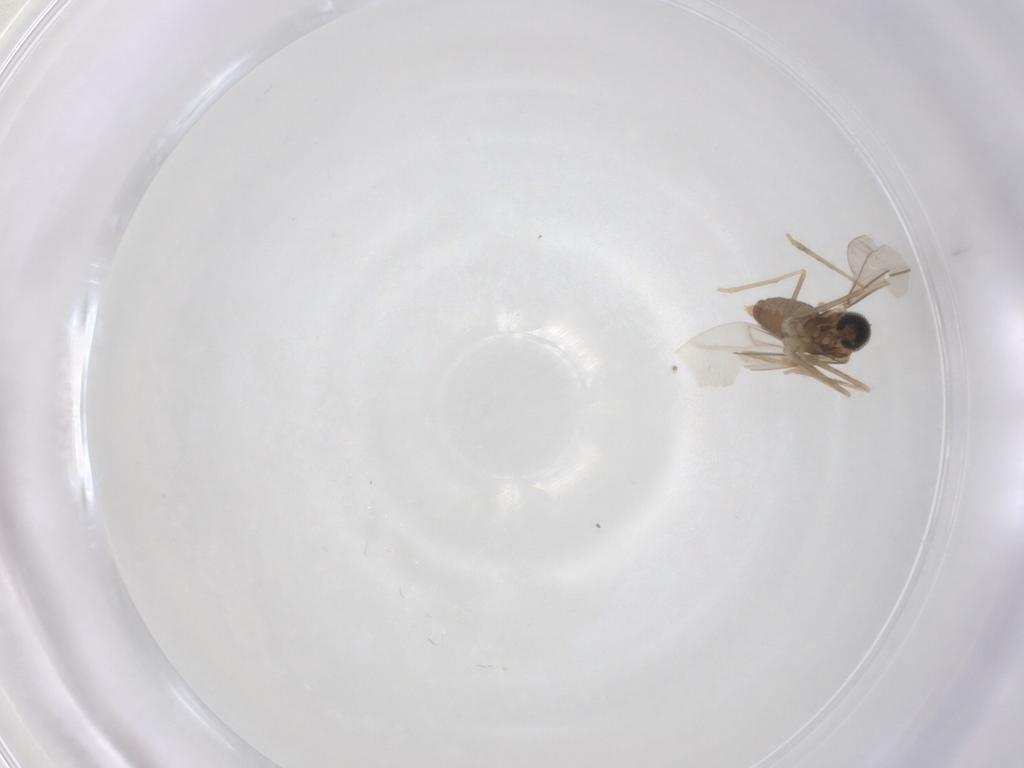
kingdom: Animalia
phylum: Arthropoda
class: Insecta
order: Diptera
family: Cecidomyiidae
